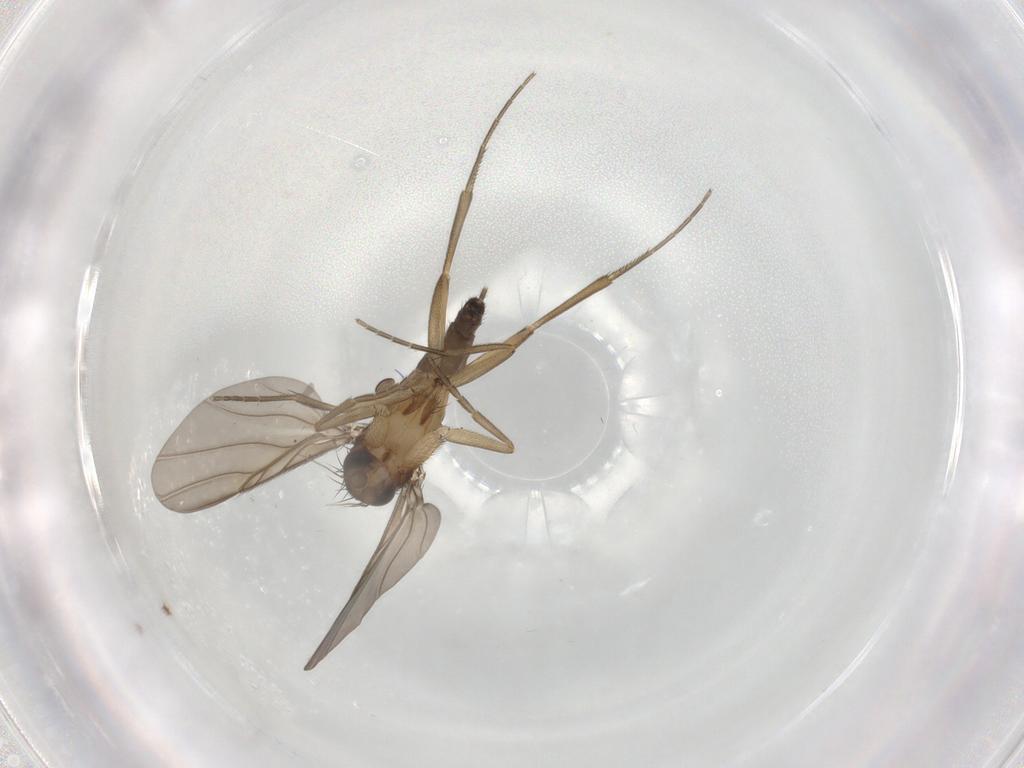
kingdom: Animalia
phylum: Arthropoda
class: Insecta
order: Diptera
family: Phoridae
